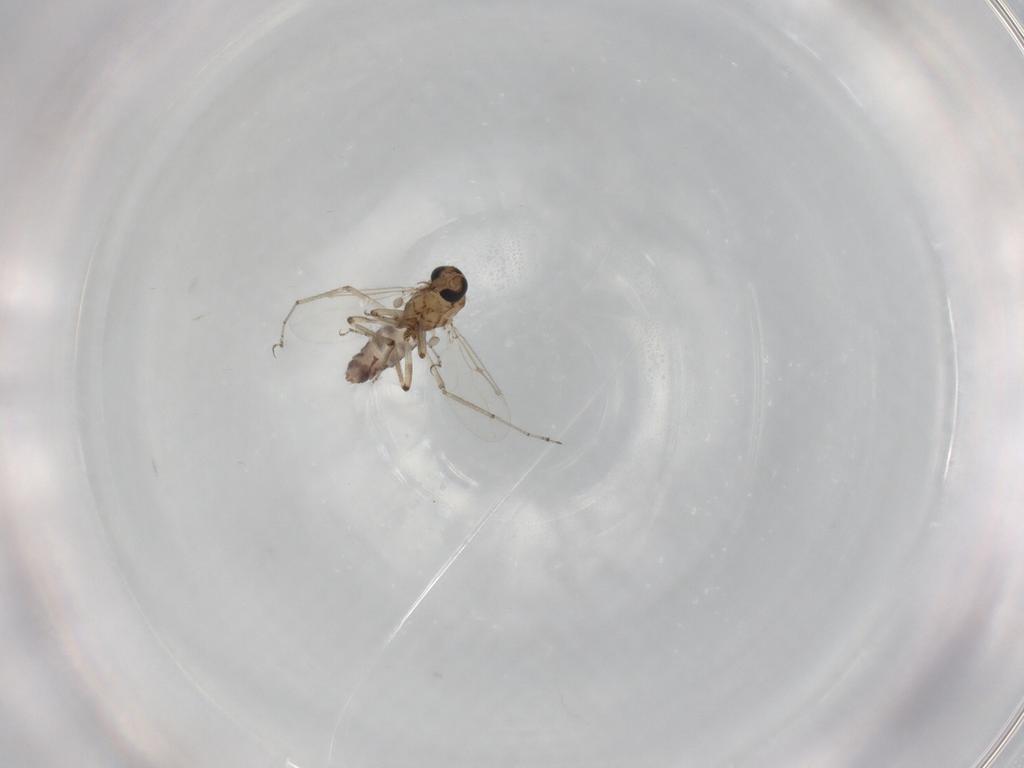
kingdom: Animalia
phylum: Arthropoda
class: Insecta
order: Diptera
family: Ceratopogonidae
